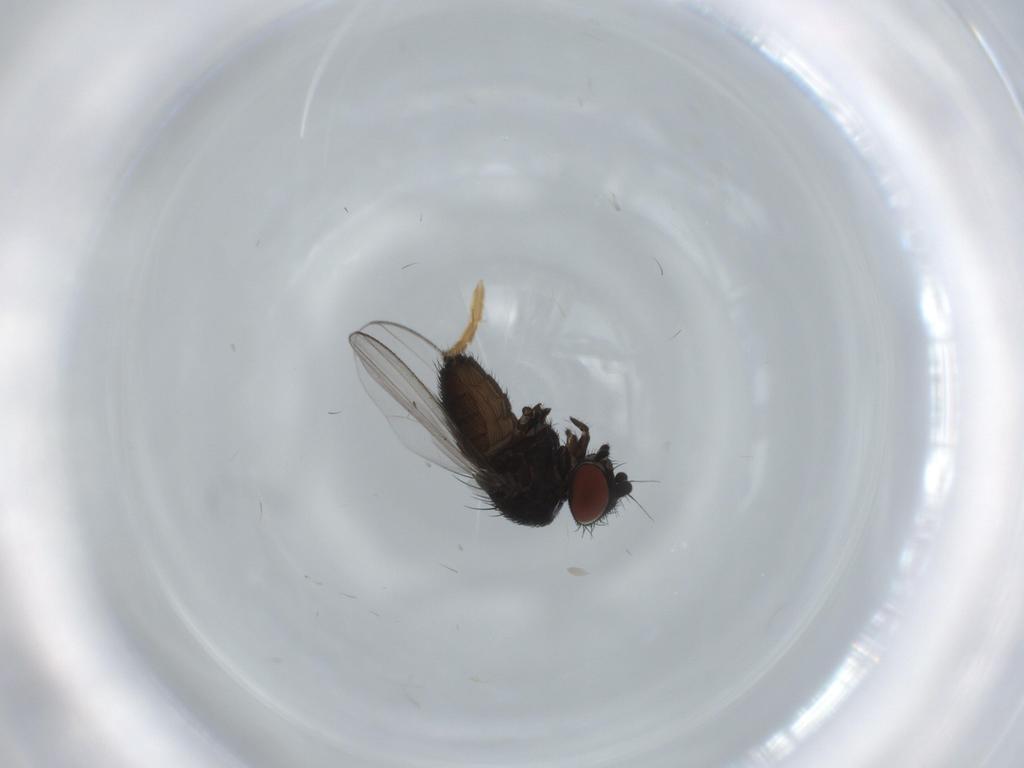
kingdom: Animalia
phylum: Arthropoda
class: Insecta
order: Diptera
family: Milichiidae
